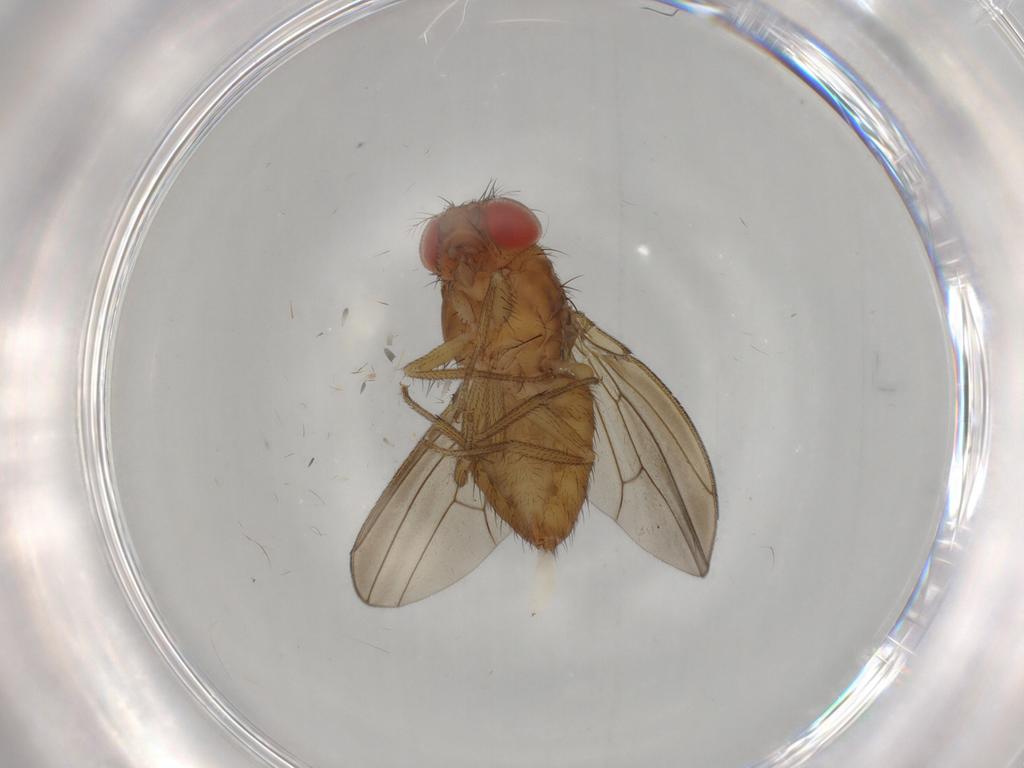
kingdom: Animalia
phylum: Arthropoda
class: Insecta
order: Diptera
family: Drosophilidae
